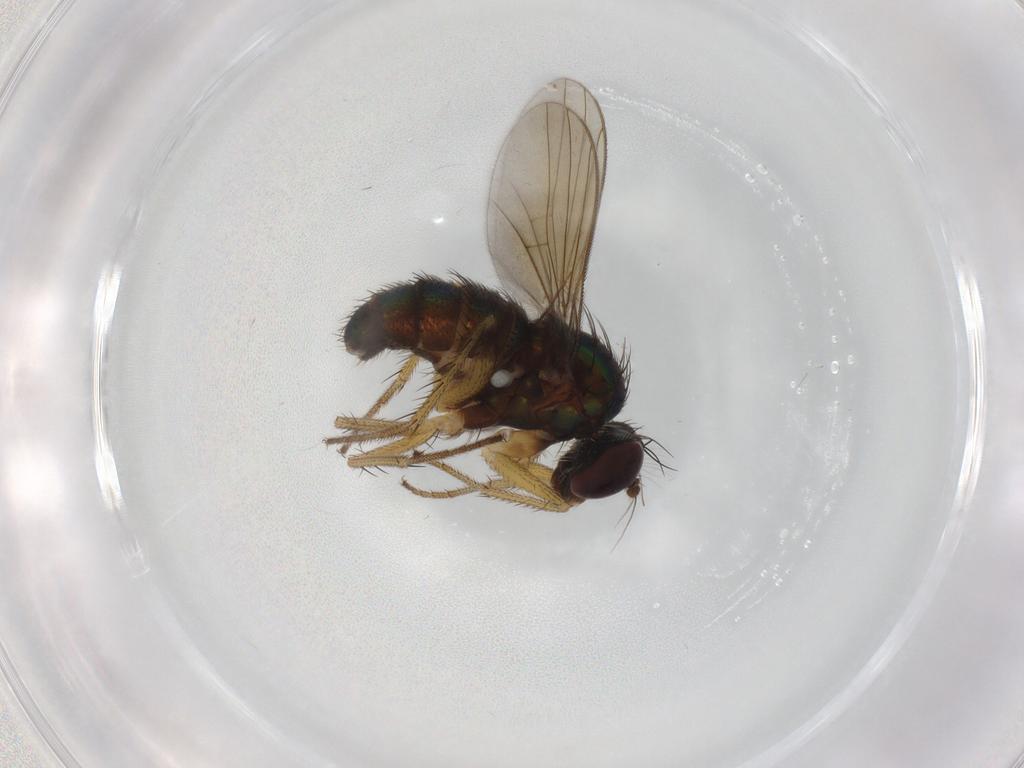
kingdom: Animalia
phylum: Arthropoda
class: Insecta
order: Diptera
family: Dolichopodidae
